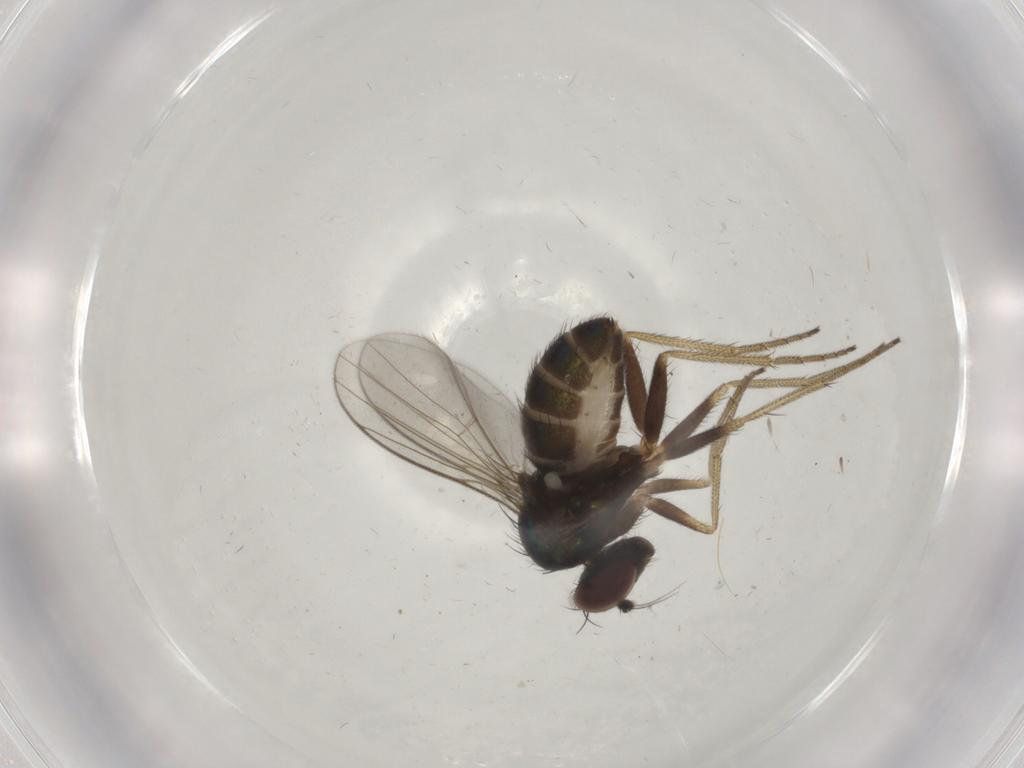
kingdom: Animalia
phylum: Arthropoda
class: Insecta
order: Diptera
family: Dolichopodidae
